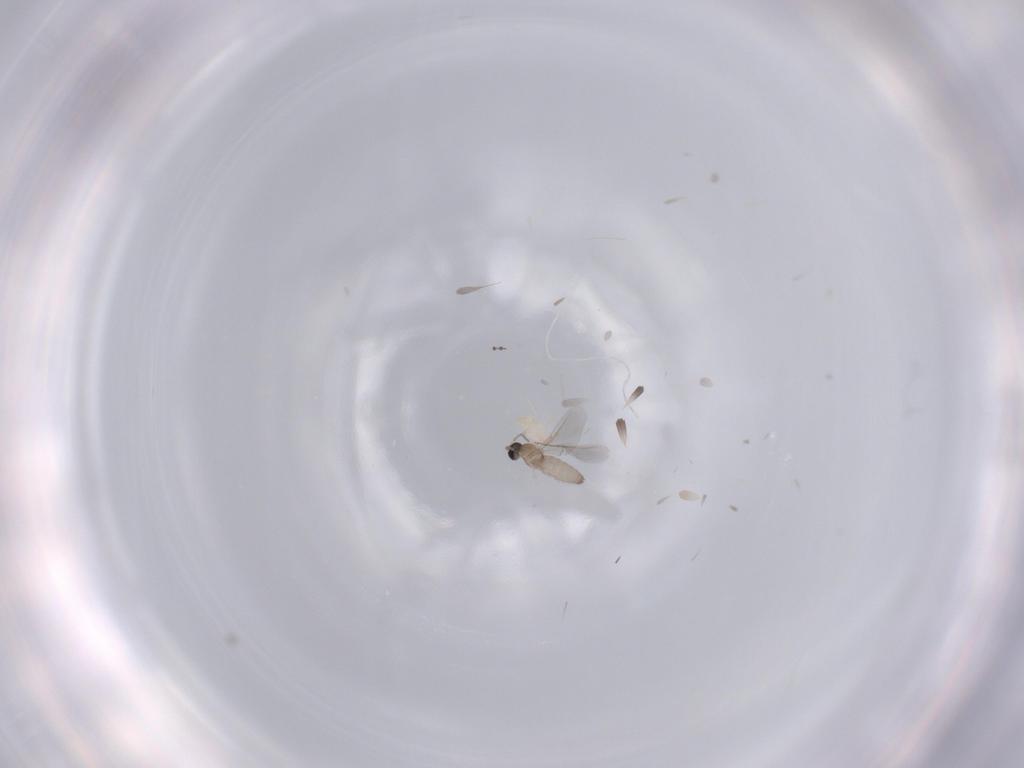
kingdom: Animalia
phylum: Arthropoda
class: Insecta
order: Diptera
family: Cecidomyiidae
